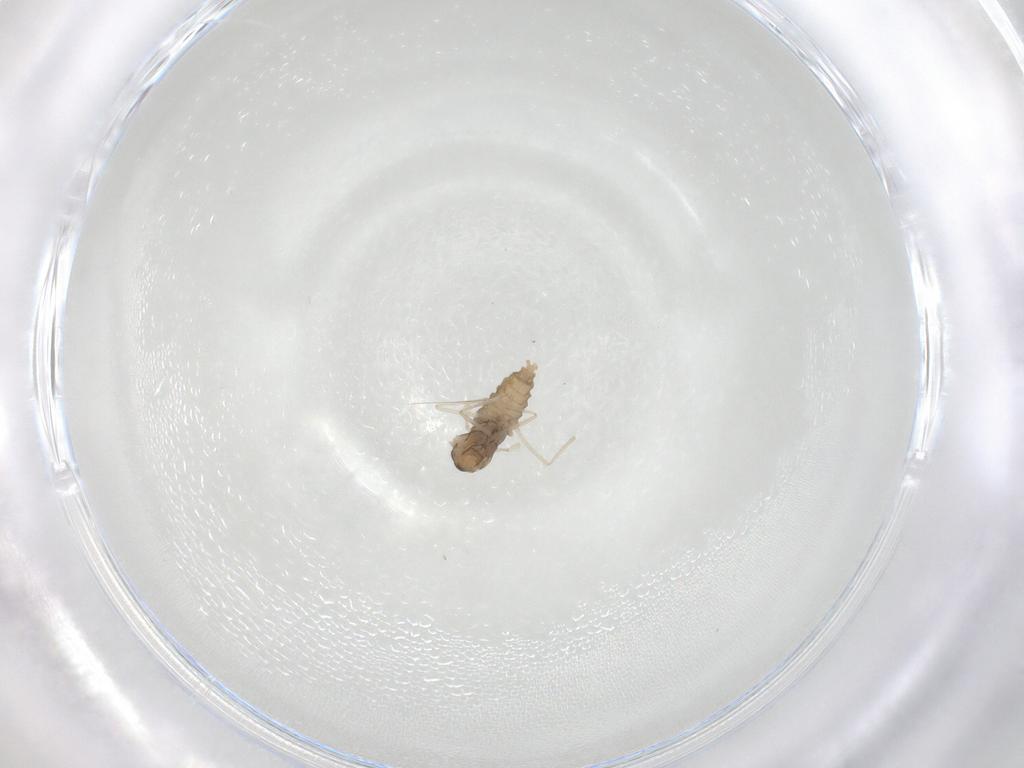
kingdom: Animalia
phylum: Arthropoda
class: Insecta
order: Diptera
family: Cecidomyiidae
